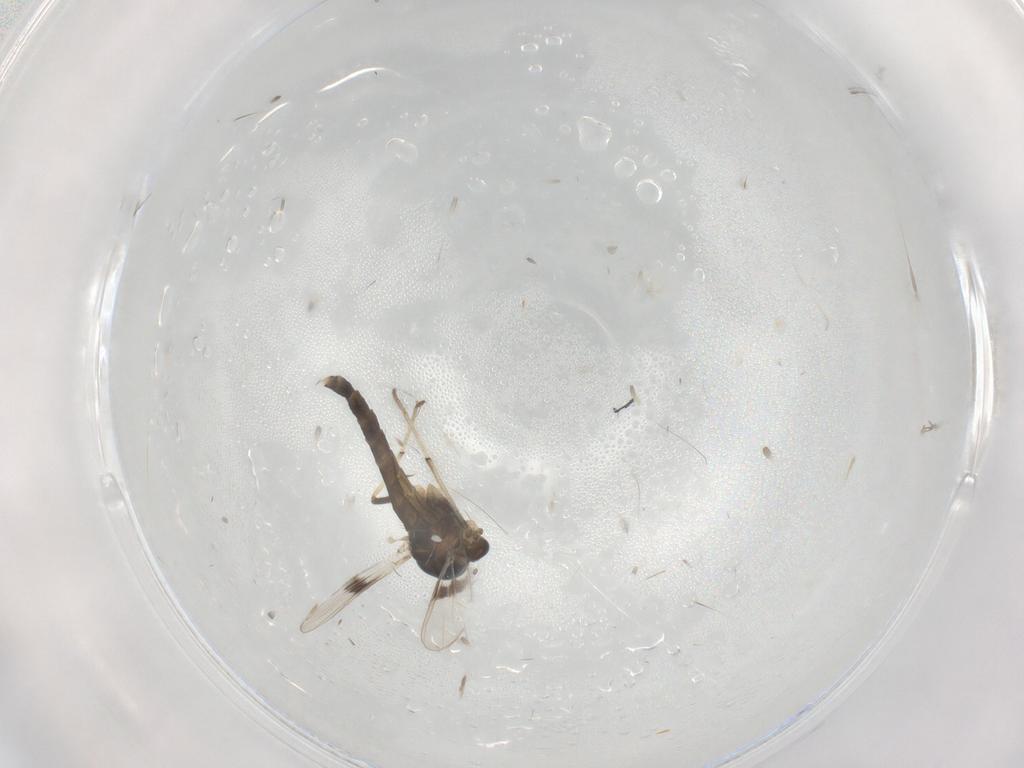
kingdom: Animalia
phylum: Arthropoda
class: Insecta
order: Diptera
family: Chironomidae
